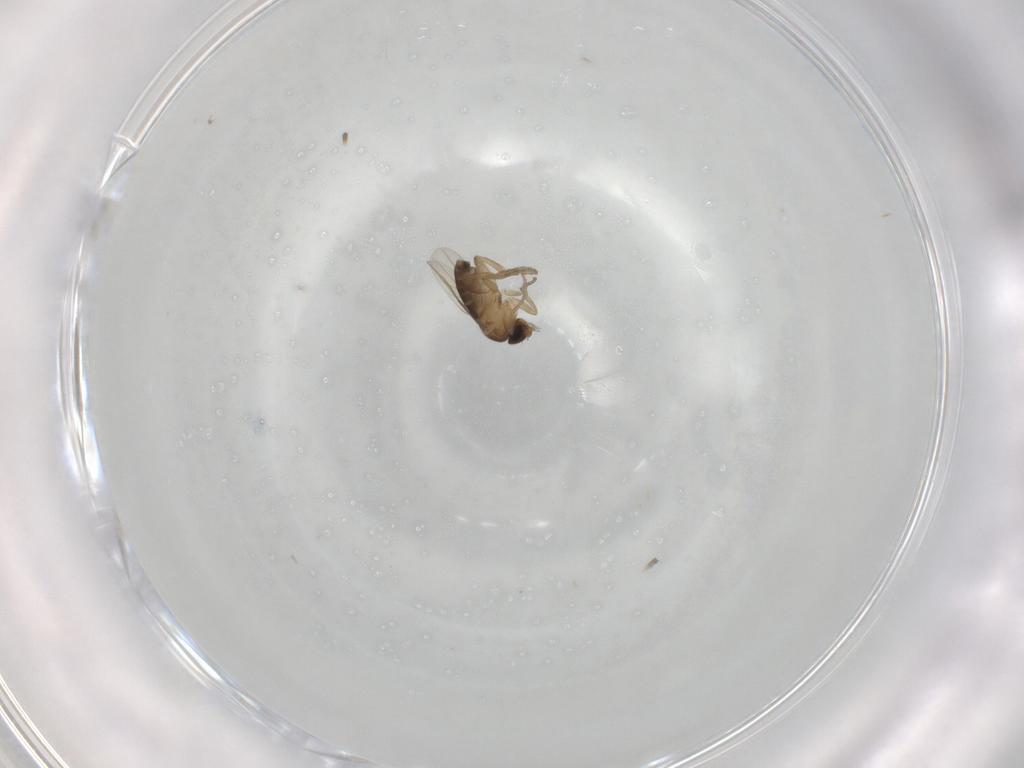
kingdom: Animalia
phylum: Arthropoda
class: Insecta
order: Diptera
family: Phoridae
